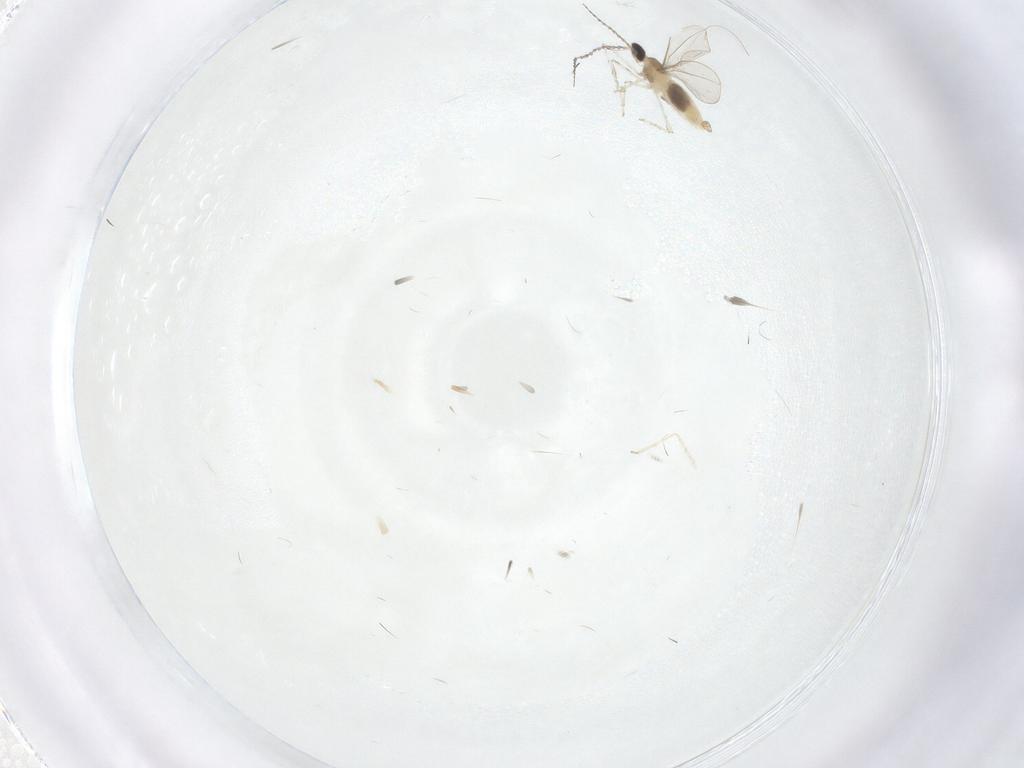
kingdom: Animalia
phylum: Arthropoda
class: Insecta
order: Diptera
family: Cecidomyiidae
